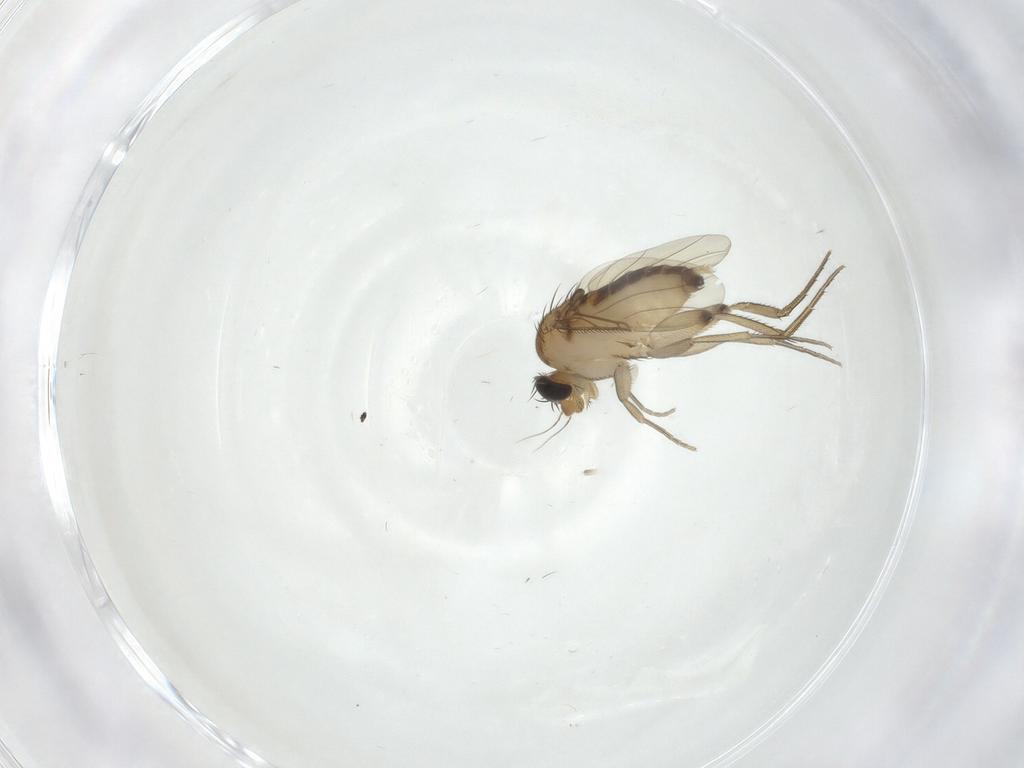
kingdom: Animalia
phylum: Arthropoda
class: Insecta
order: Diptera
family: Phoridae
